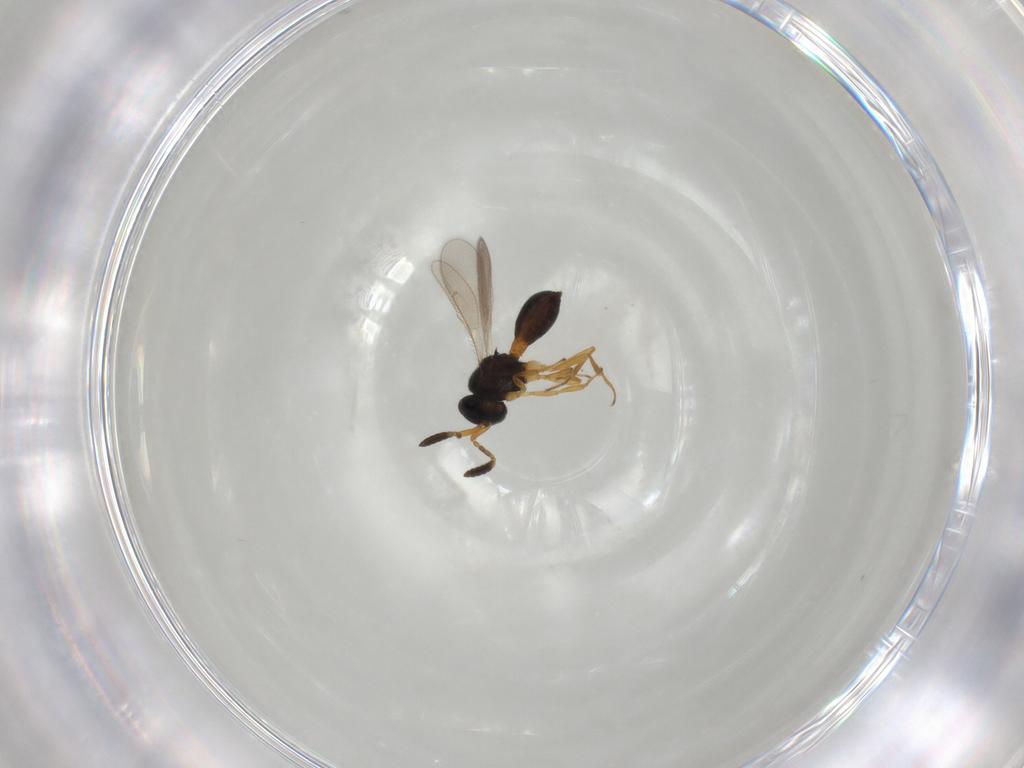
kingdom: Animalia
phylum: Arthropoda
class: Insecta
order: Hymenoptera
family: Scelionidae
